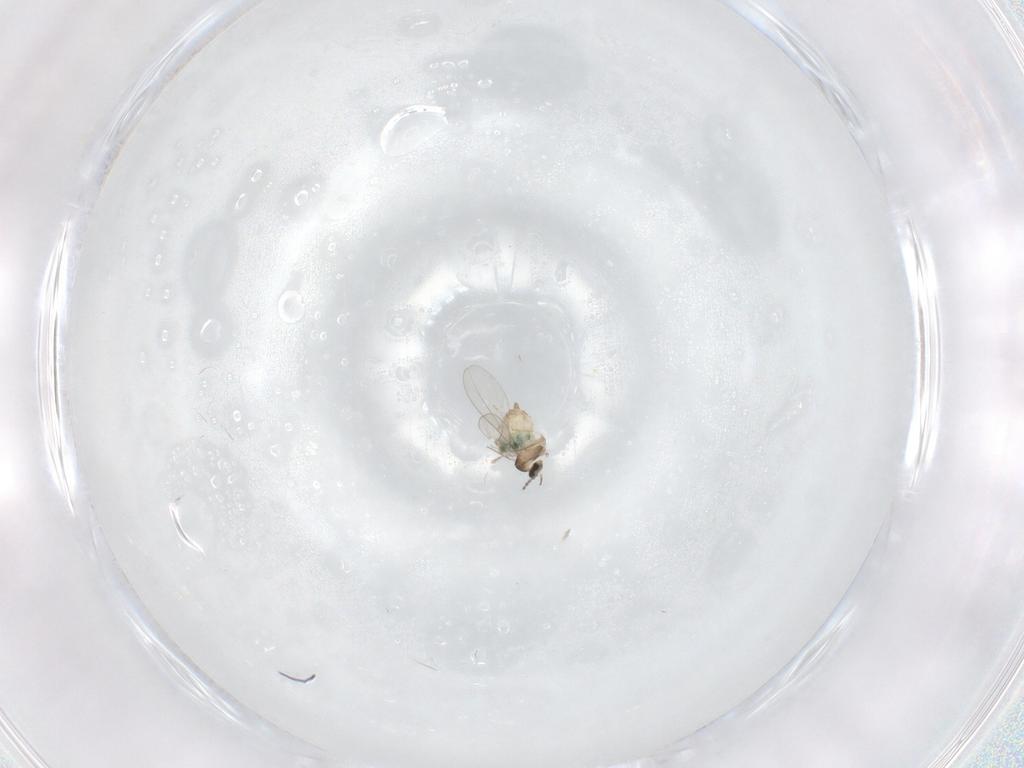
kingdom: Animalia
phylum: Arthropoda
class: Insecta
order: Diptera
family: Cecidomyiidae
